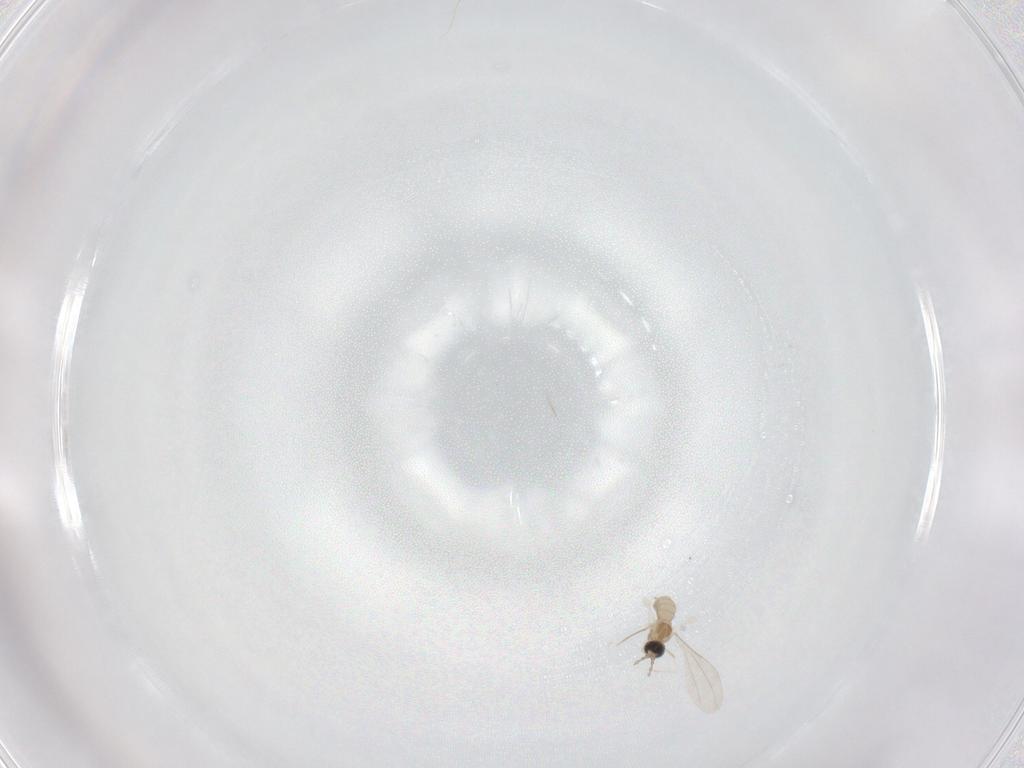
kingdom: Animalia
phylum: Arthropoda
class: Insecta
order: Diptera
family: Cecidomyiidae
